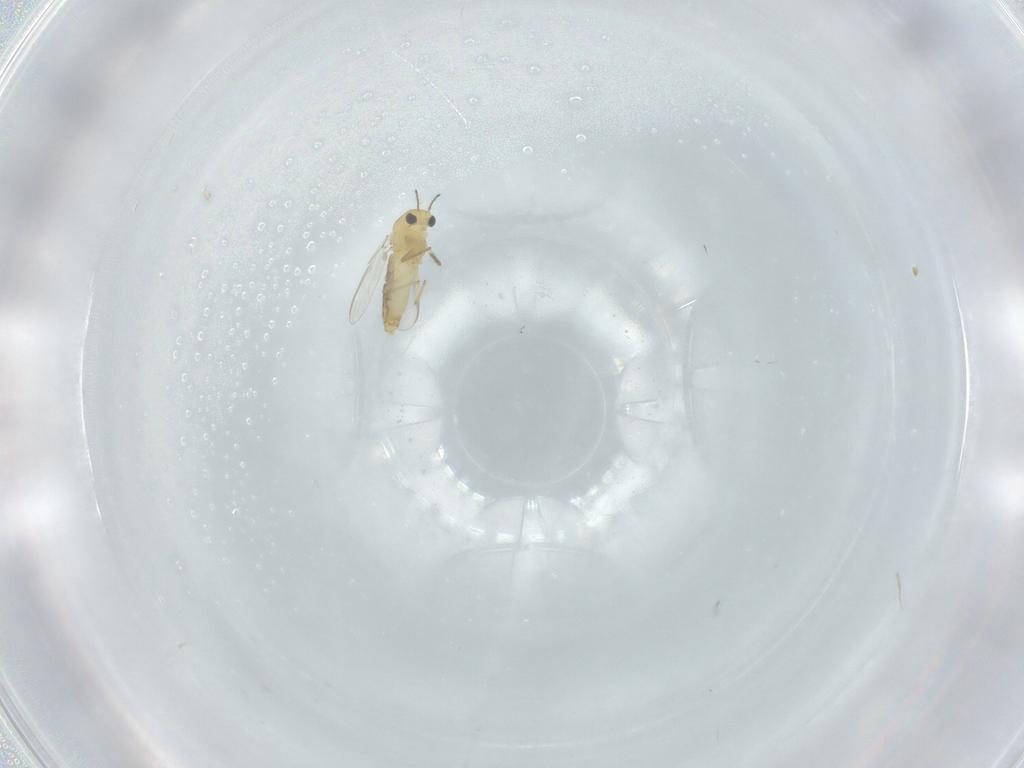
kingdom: Animalia
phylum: Arthropoda
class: Insecta
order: Diptera
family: Chironomidae
